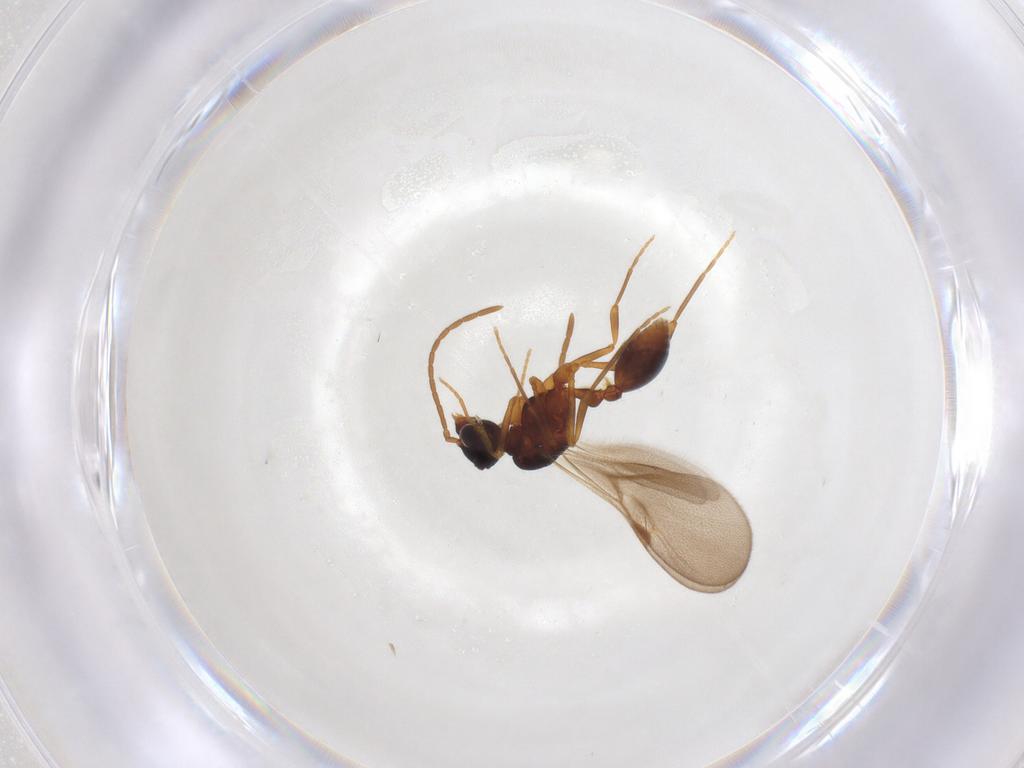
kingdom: Animalia
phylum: Arthropoda
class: Insecta
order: Hymenoptera
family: Formicidae
